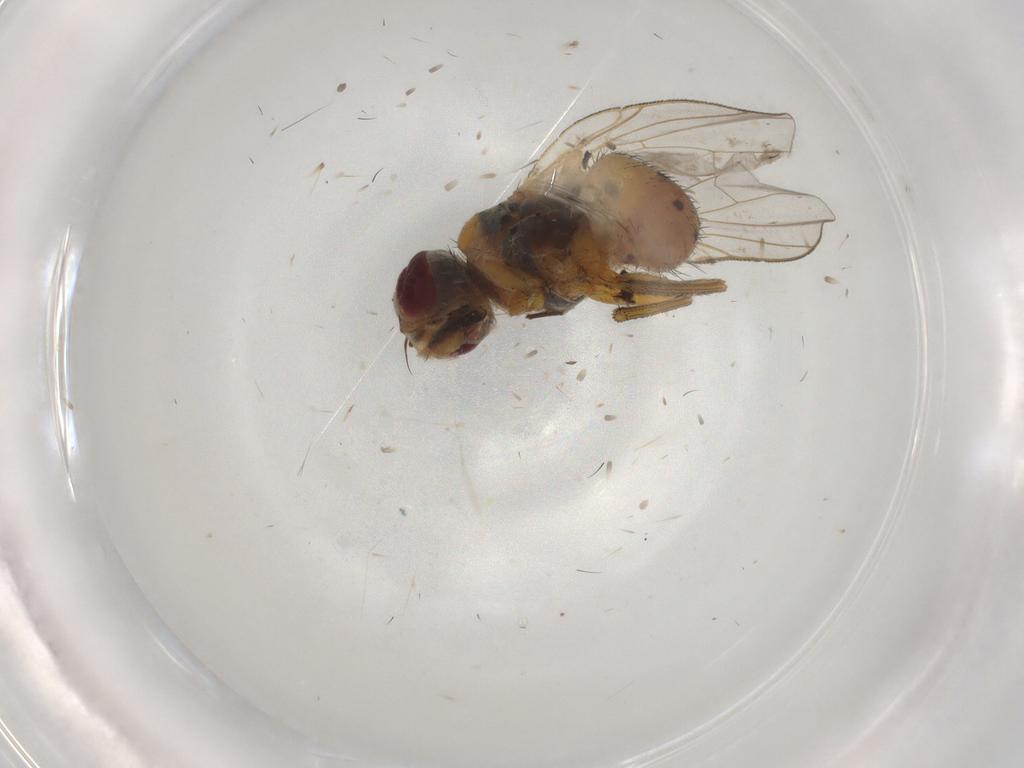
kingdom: Animalia
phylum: Arthropoda
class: Insecta
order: Diptera
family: Muscidae
